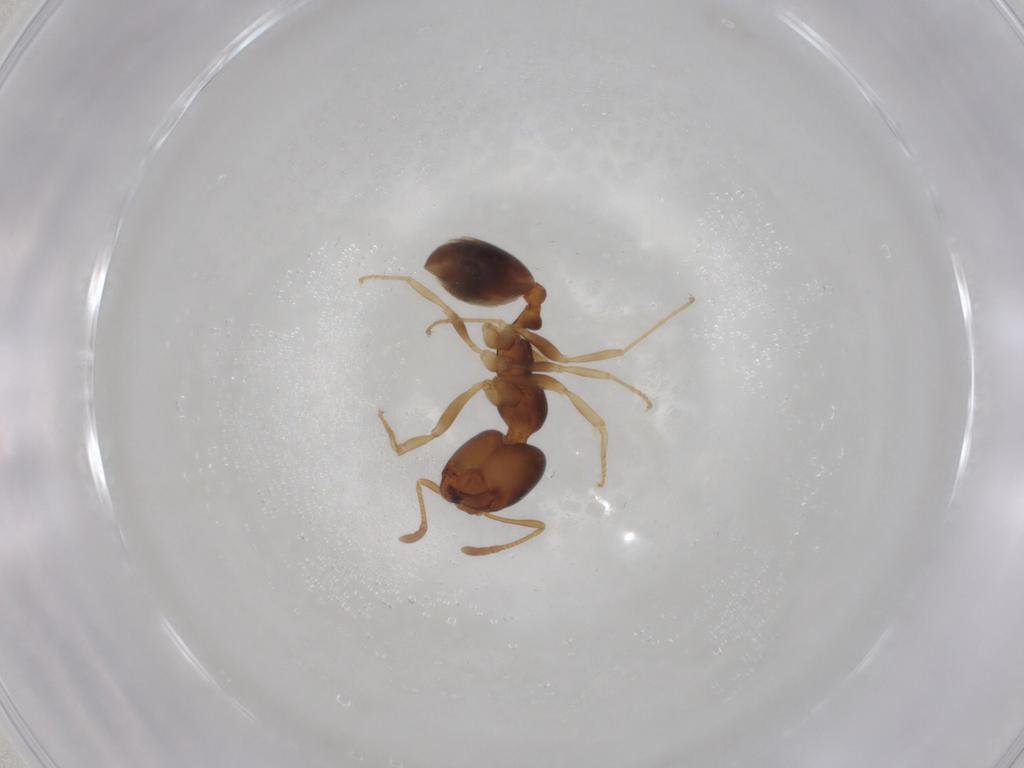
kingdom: Animalia
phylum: Arthropoda
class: Insecta
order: Hymenoptera
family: Formicidae
